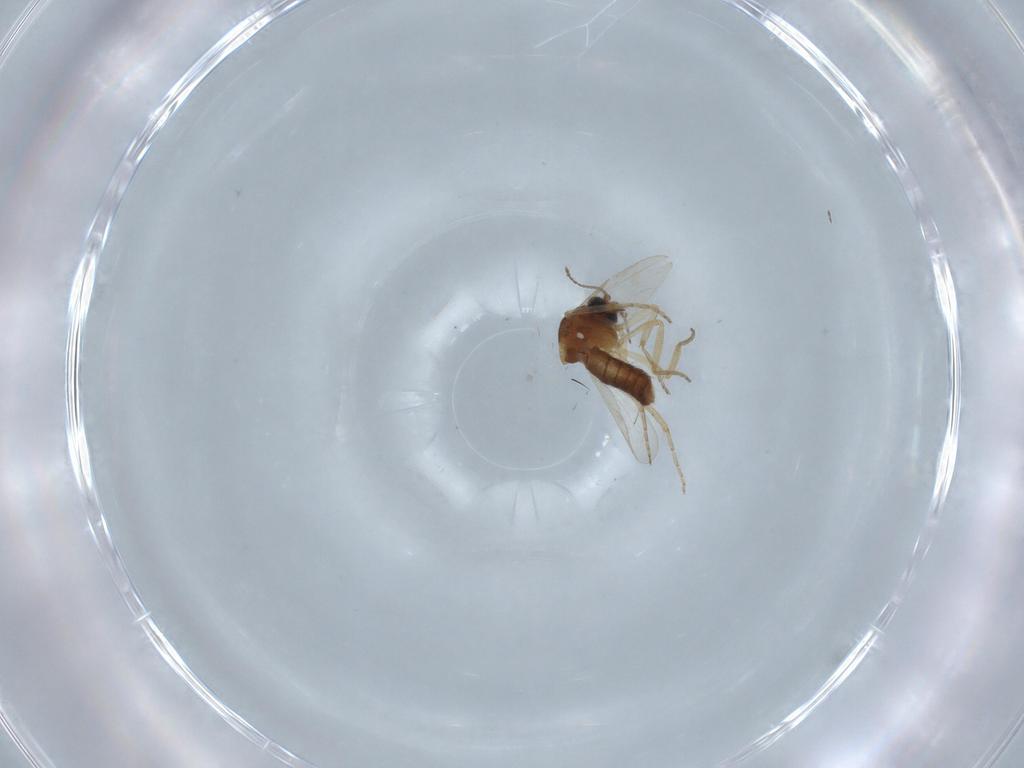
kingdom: Animalia
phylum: Arthropoda
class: Insecta
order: Diptera
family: Ceratopogonidae
